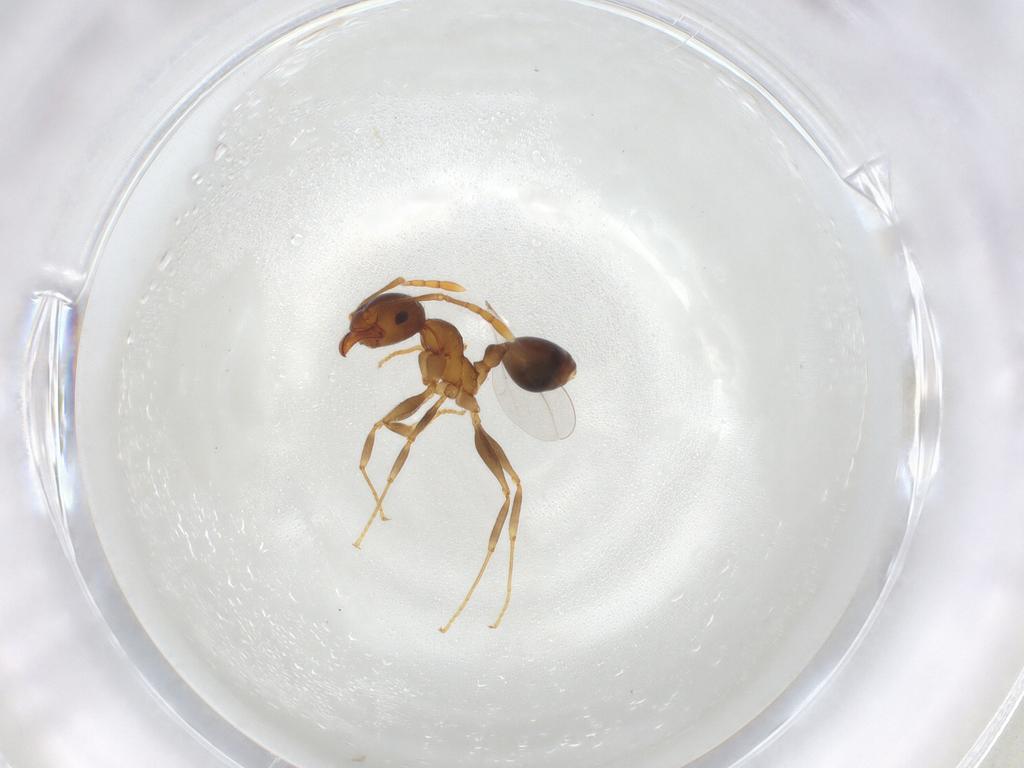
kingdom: Animalia
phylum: Arthropoda
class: Insecta
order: Hymenoptera
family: Formicidae
